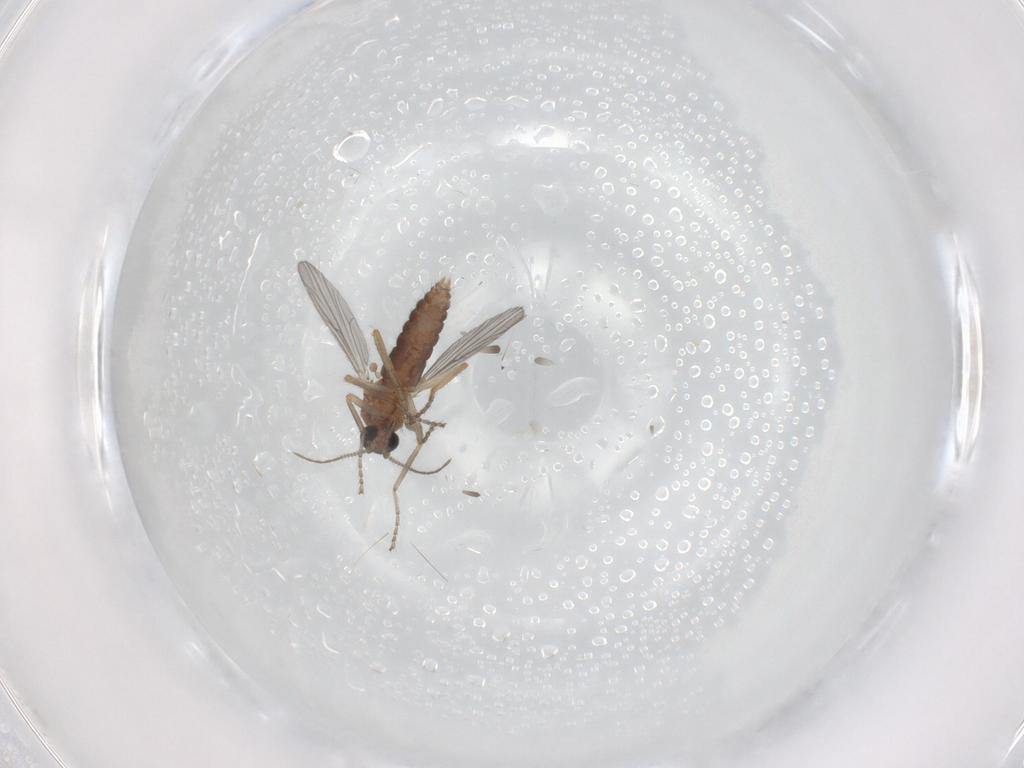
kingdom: Animalia
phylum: Arthropoda
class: Insecta
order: Diptera
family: Ceratopogonidae
